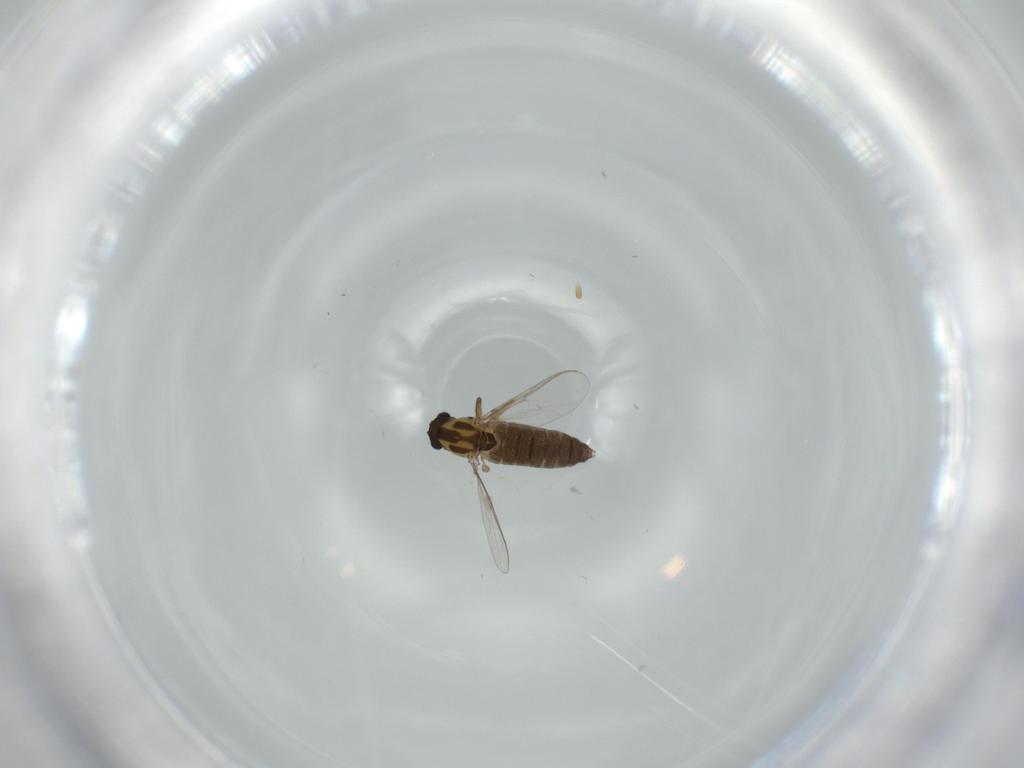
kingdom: Animalia
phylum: Arthropoda
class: Insecta
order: Diptera
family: Chironomidae
